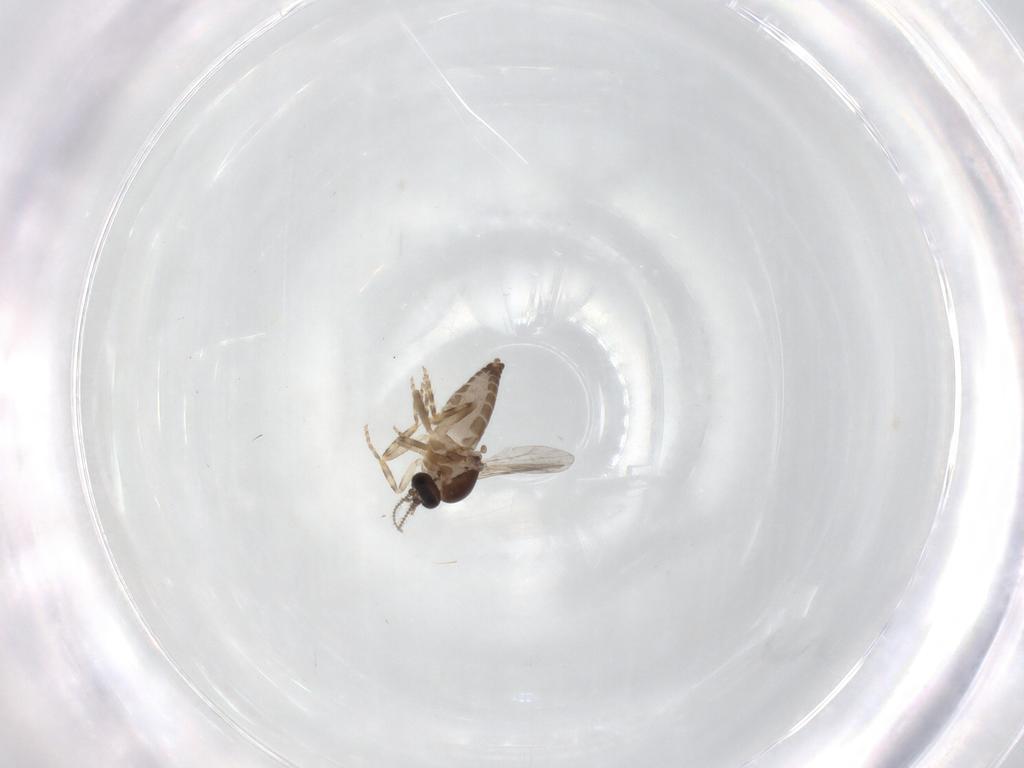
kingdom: Animalia
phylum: Arthropoda
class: Insecta
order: Diptera
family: Ceratopogonidae
